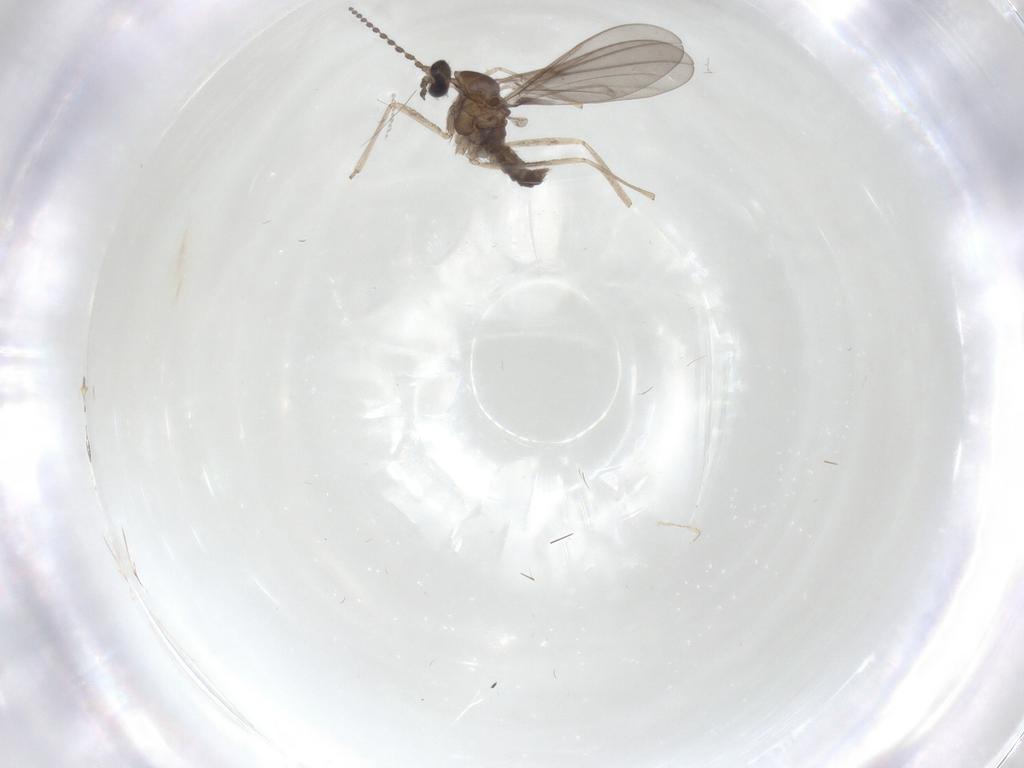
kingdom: Animalia
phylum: Arthropoda
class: Insecta
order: Diptera
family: Cecidomyiidae
